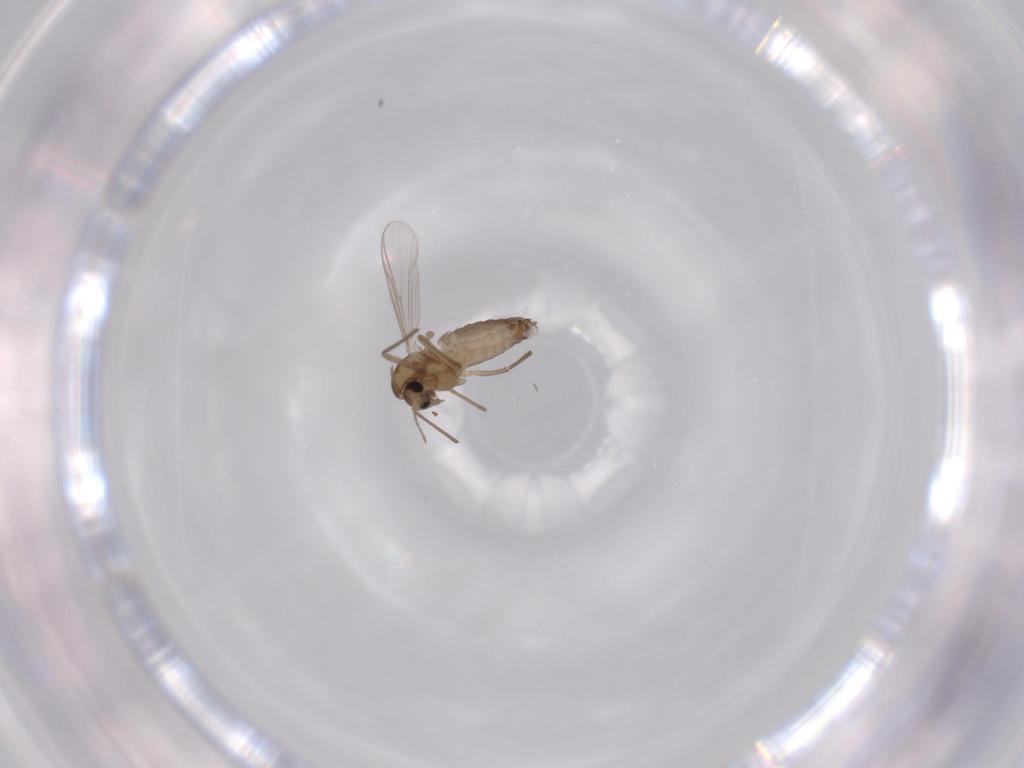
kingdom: Animalia
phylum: Arthropoda
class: Insecta
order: Diptera
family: Chironomidae
